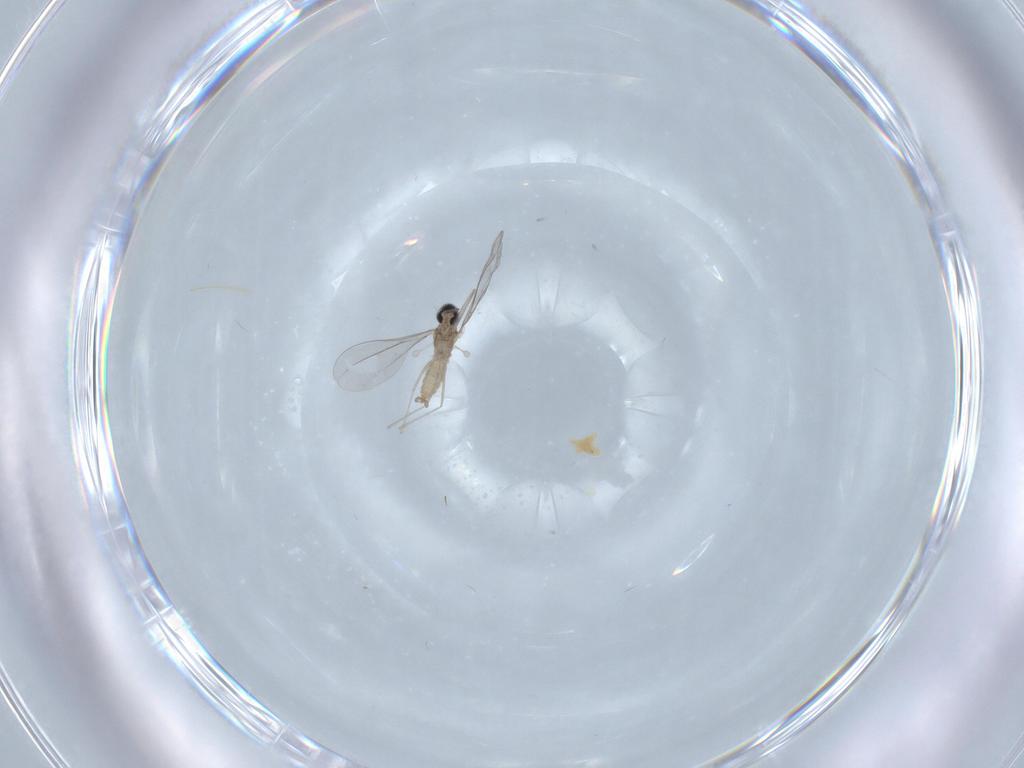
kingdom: Animalia
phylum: Arthropoda
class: Insecta
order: Diptera
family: Cecidomyiidae
